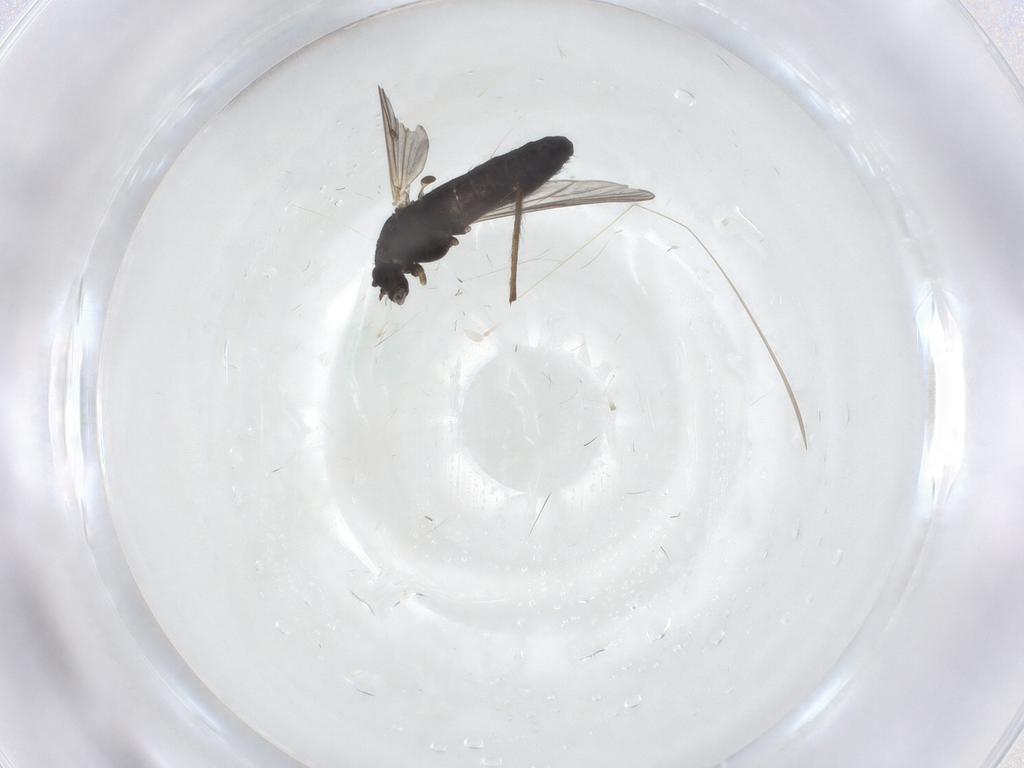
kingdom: Animalia
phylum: Arthropoda
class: Insecta
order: Diptera
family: Chironomidae
